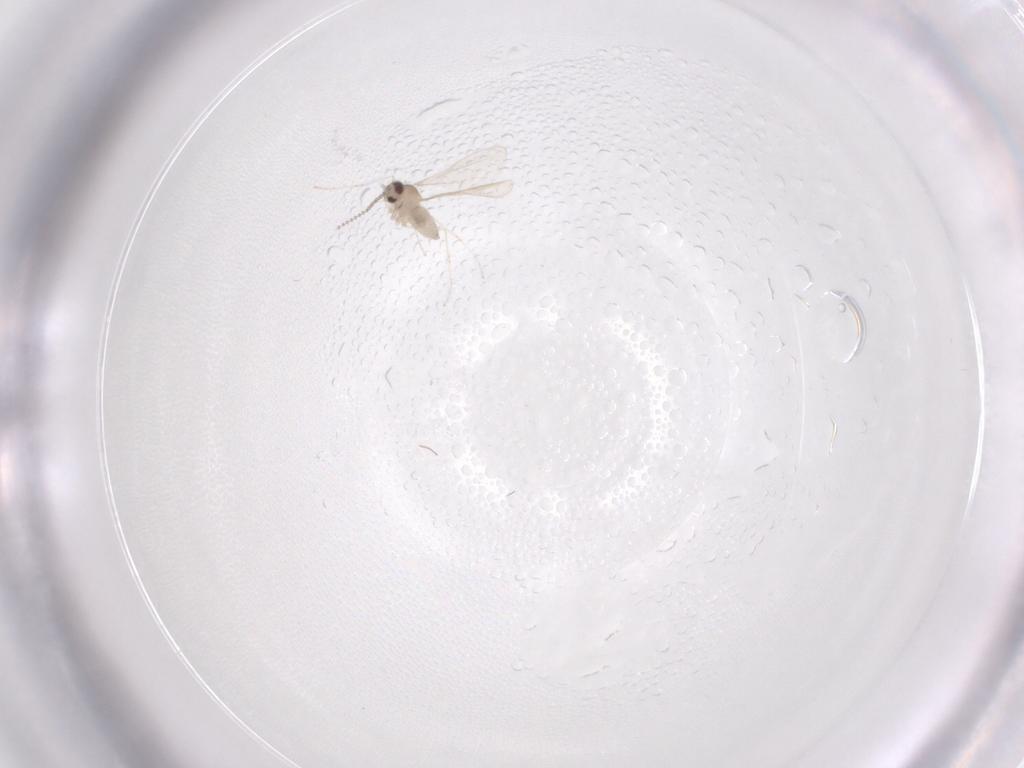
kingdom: Animalia
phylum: Arthropoda
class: Insecta
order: Diptera
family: Cecidomyiidae
